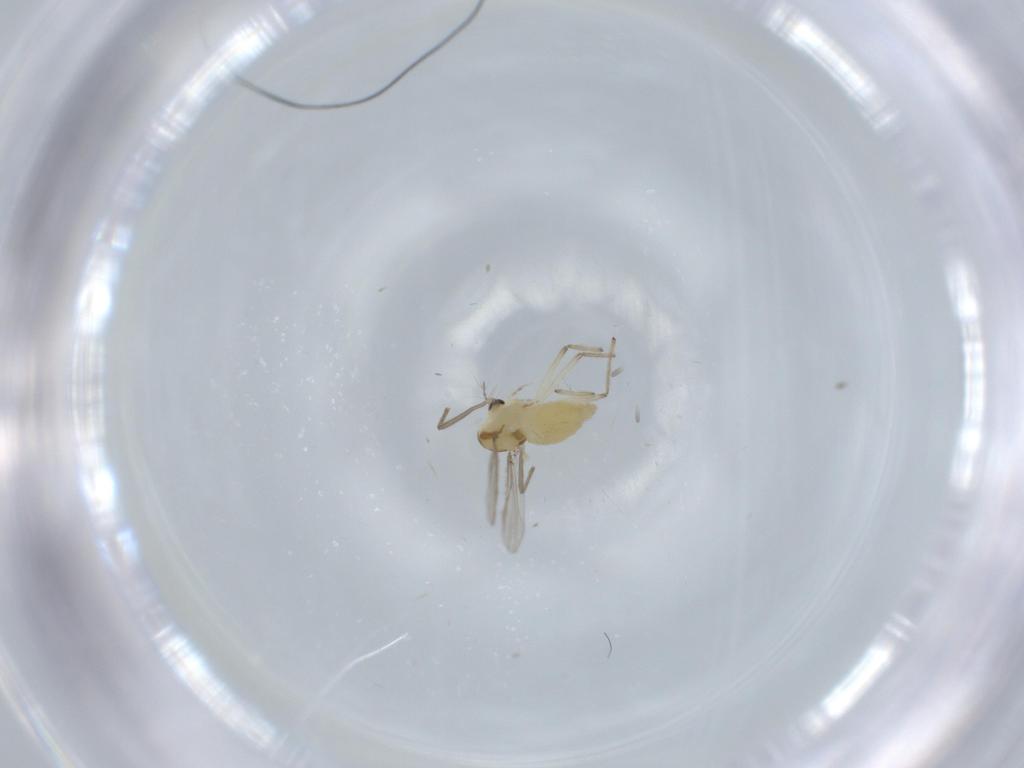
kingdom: Animalia
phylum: Arthropoda
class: Insecta
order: Diptera
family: Chironomidae
